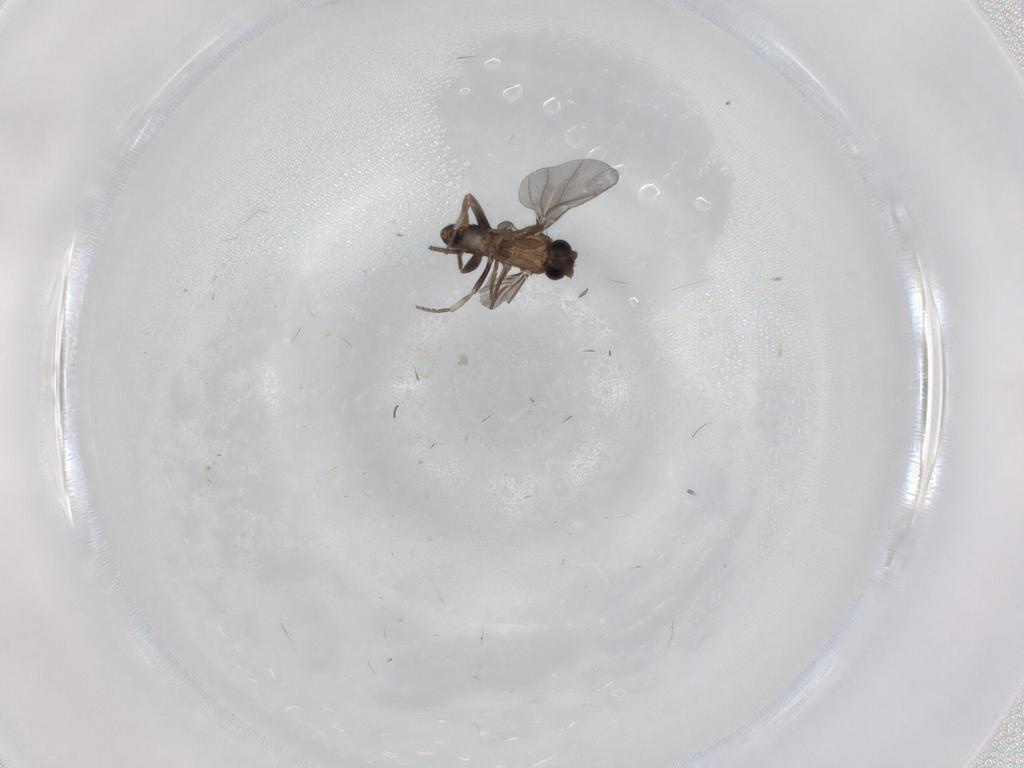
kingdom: Animalia
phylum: Arthropoda
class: Insecta
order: Diptera
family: Phoridae
